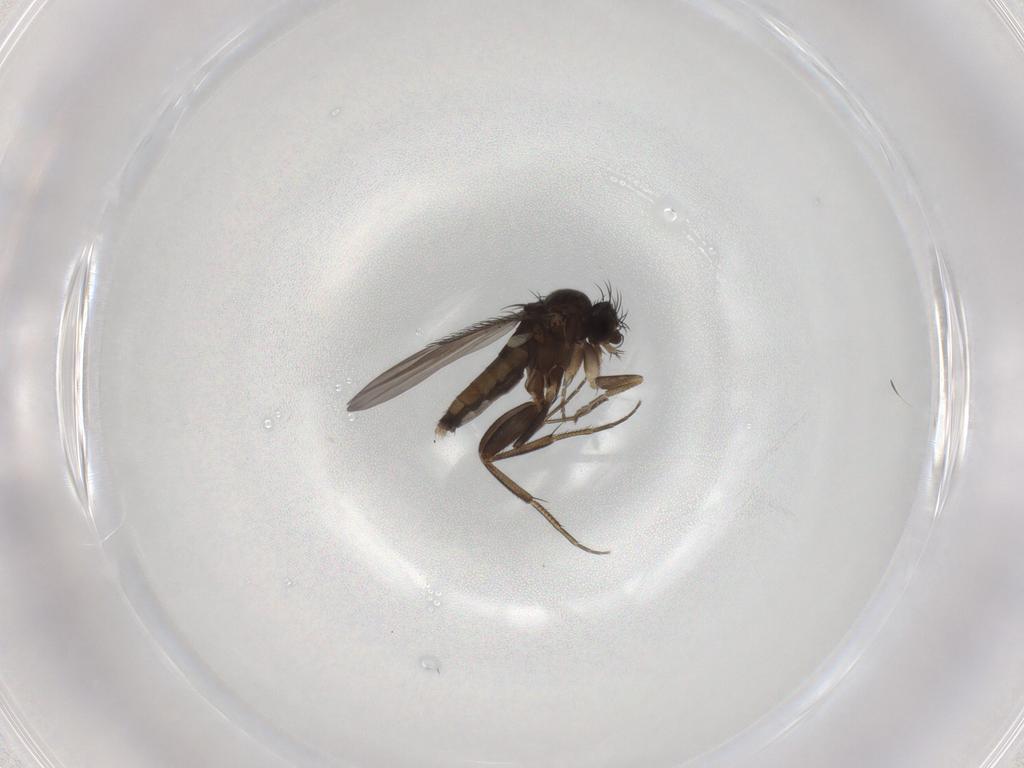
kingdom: Animalia
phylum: Arthropoda
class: Insecta
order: Diptera
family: Phoridae
